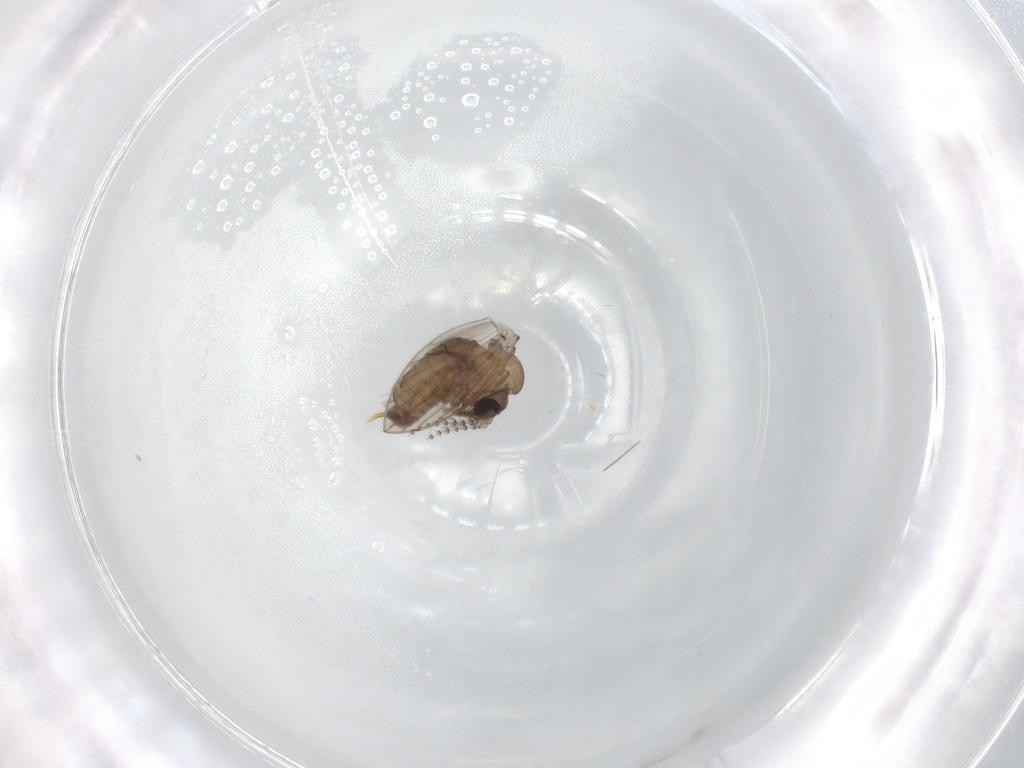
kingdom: Animalia
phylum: Arthropoda
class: Insecta
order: Diptera
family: Psychodidae
